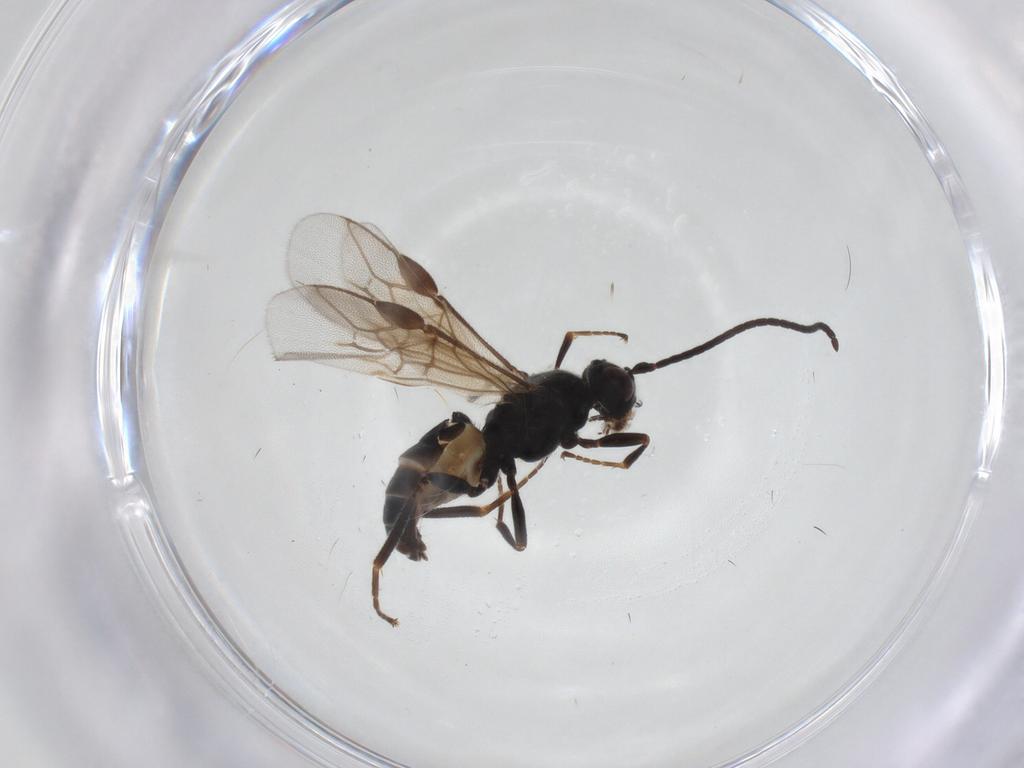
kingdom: Animalia
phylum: Arthropoda
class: Insecta
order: Hymenoptera
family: Braconidae
